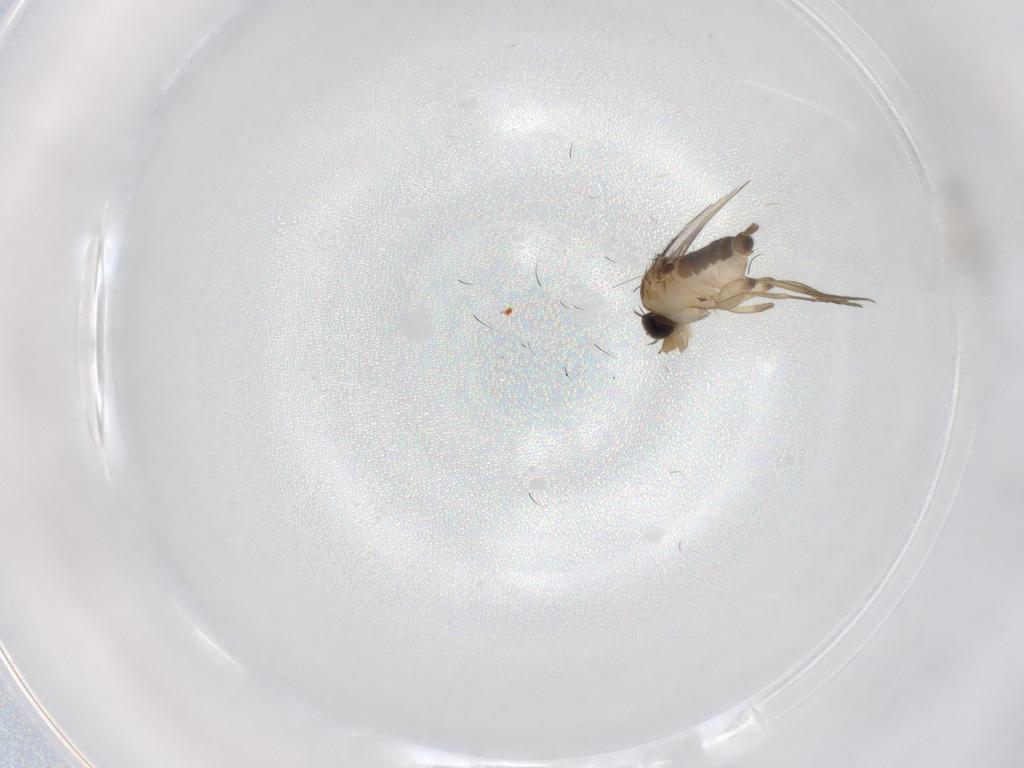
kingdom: Animalia
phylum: Arthropoda
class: Insecta
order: Diptera
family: Phoridae
